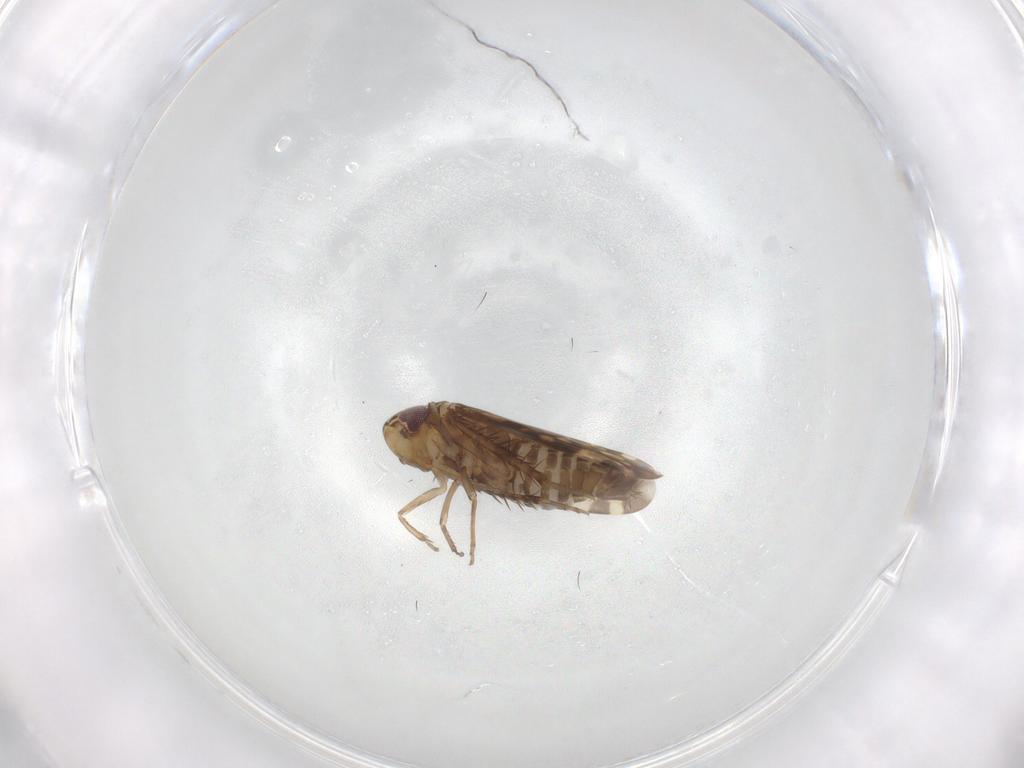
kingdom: Animalia
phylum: Arthropoda
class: Insecta
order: Hemiptera
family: Cicadellidae
